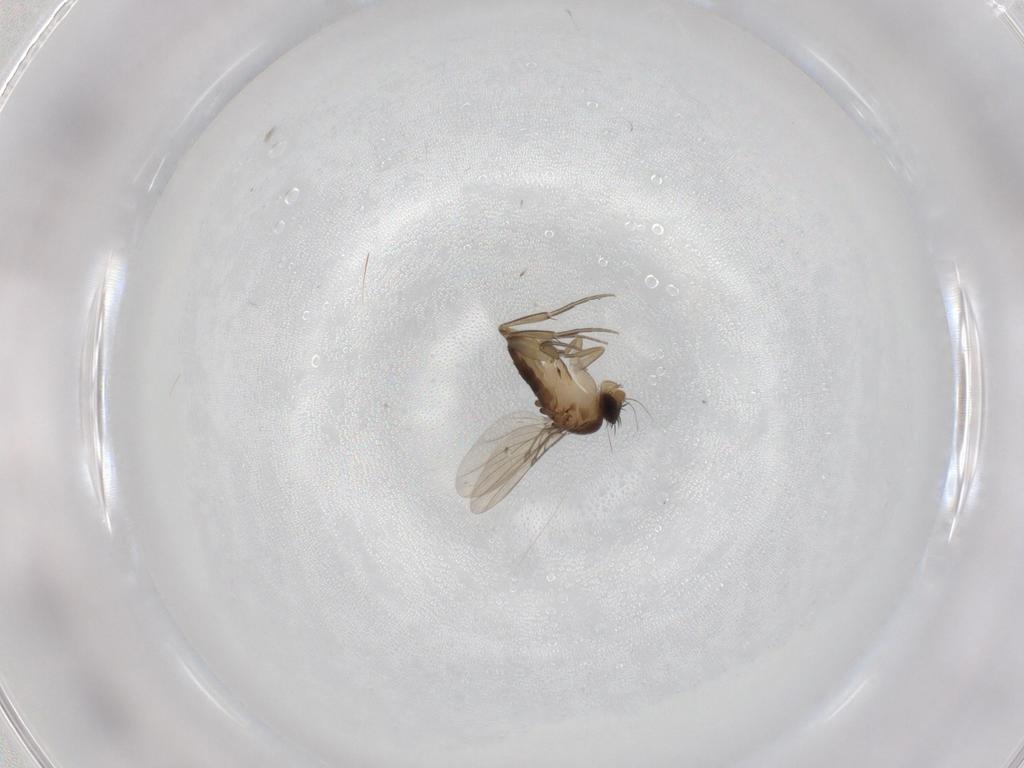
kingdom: Animalia
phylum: Arthropoda
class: Insecta
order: Diptera
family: Phoridae
